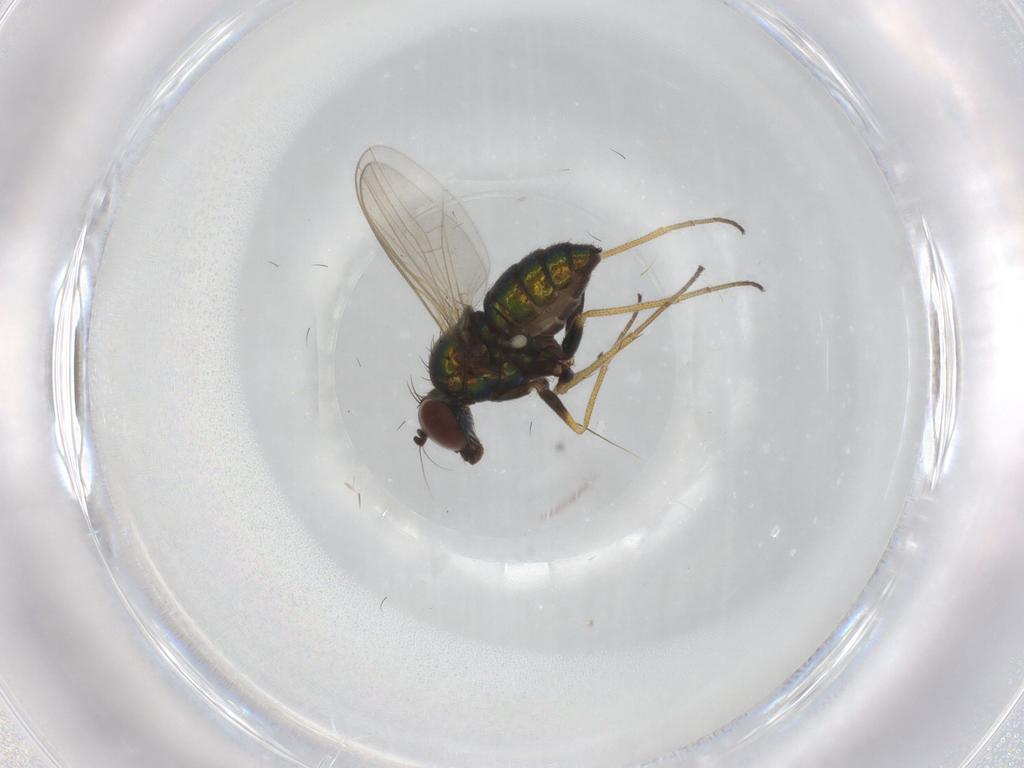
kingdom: Animalia
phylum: Arthropoda
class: Insecta
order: Diptera
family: Dolichopodidae
